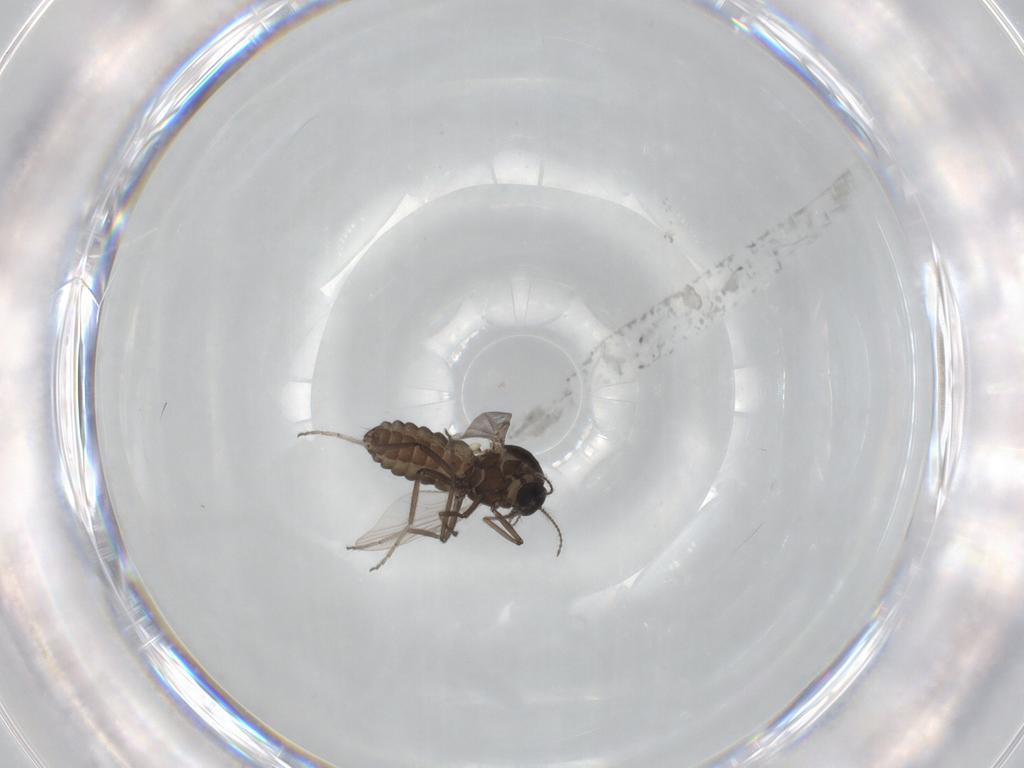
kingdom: Animalia
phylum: Arthropoda
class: Insecta
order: Diptera
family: Ceratopogonidae
